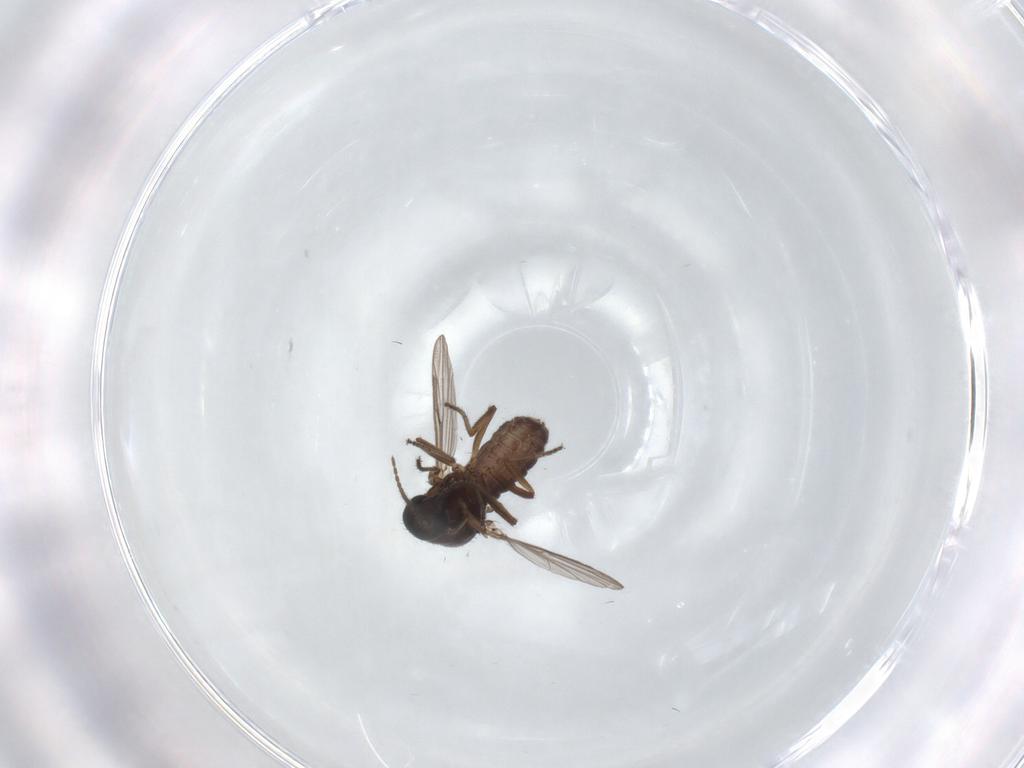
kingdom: Animalia
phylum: Arthropoda
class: Insecta
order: Diptera
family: Ceratopogonidae
